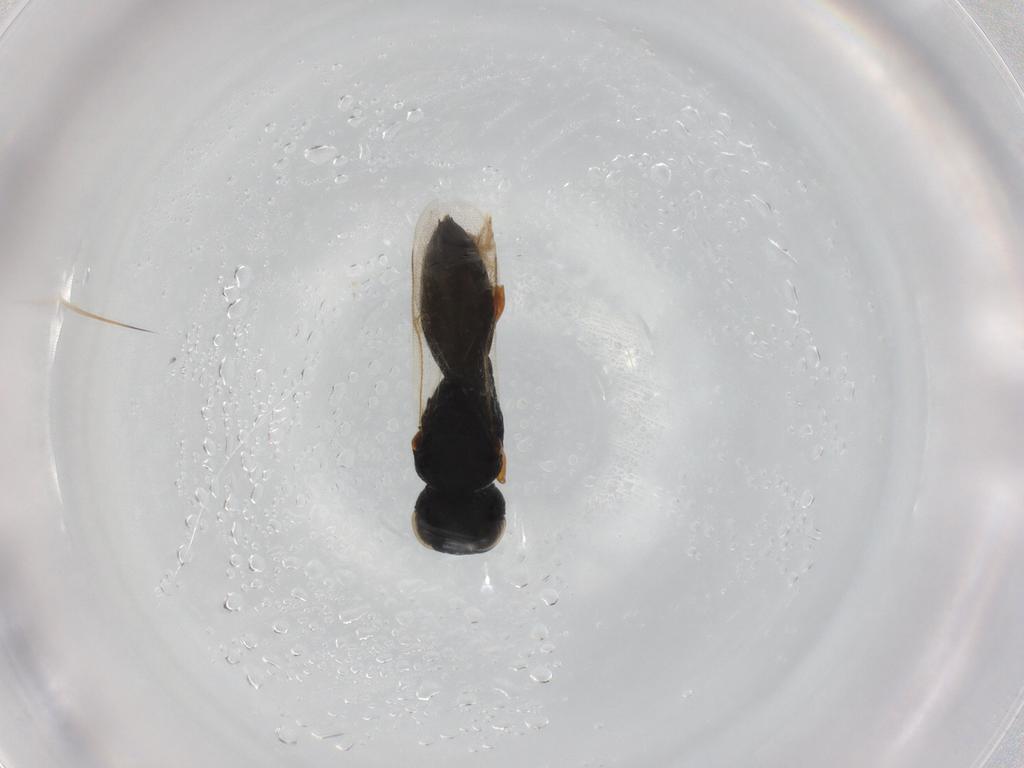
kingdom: Animalia
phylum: Arthropoda
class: Insecta
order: Hymenoptera
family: Scelionidae
